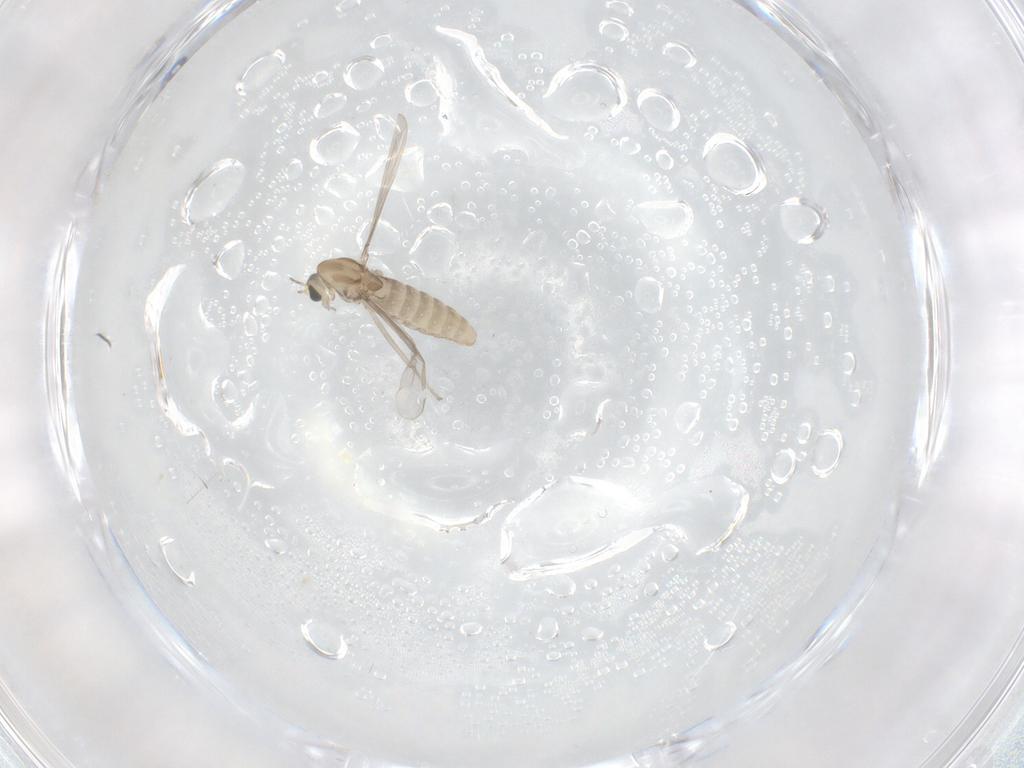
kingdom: Animalia
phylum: Arthropoda
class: Insecta
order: Diptera
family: Chironomidae
